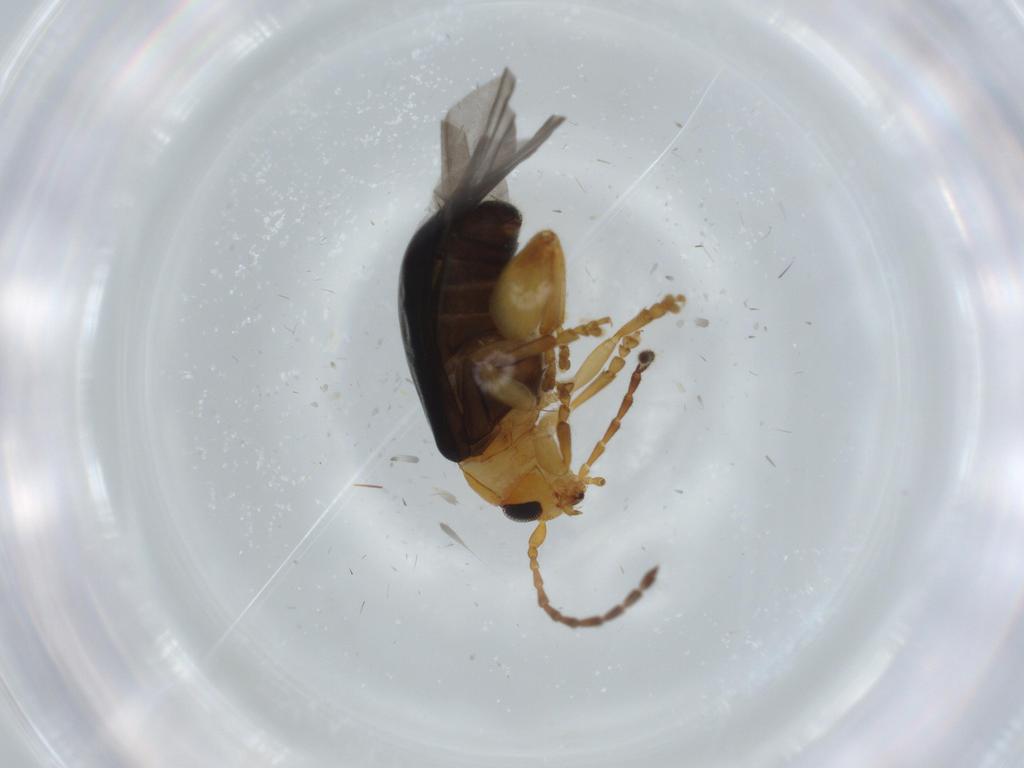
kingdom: Animalia
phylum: Arthropoda
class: Insecta
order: Coleoptera
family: Chrysomelidae
